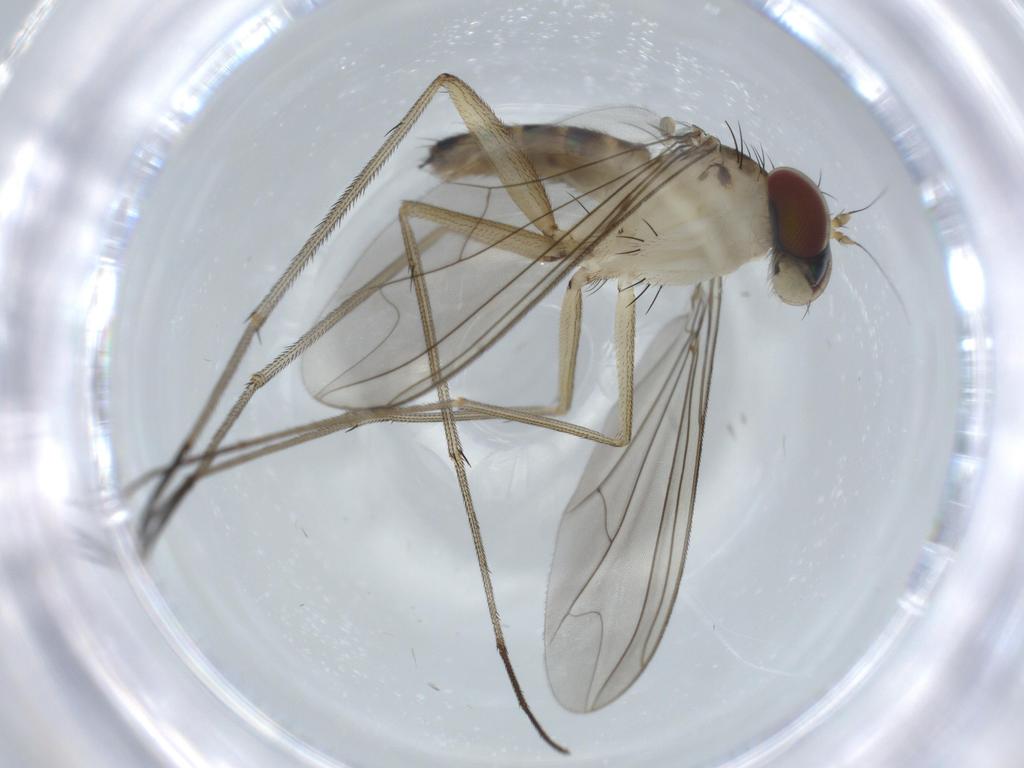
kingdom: Animalia
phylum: Arthropoda
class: Insecta
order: Diptera
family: Dolichopodidae
